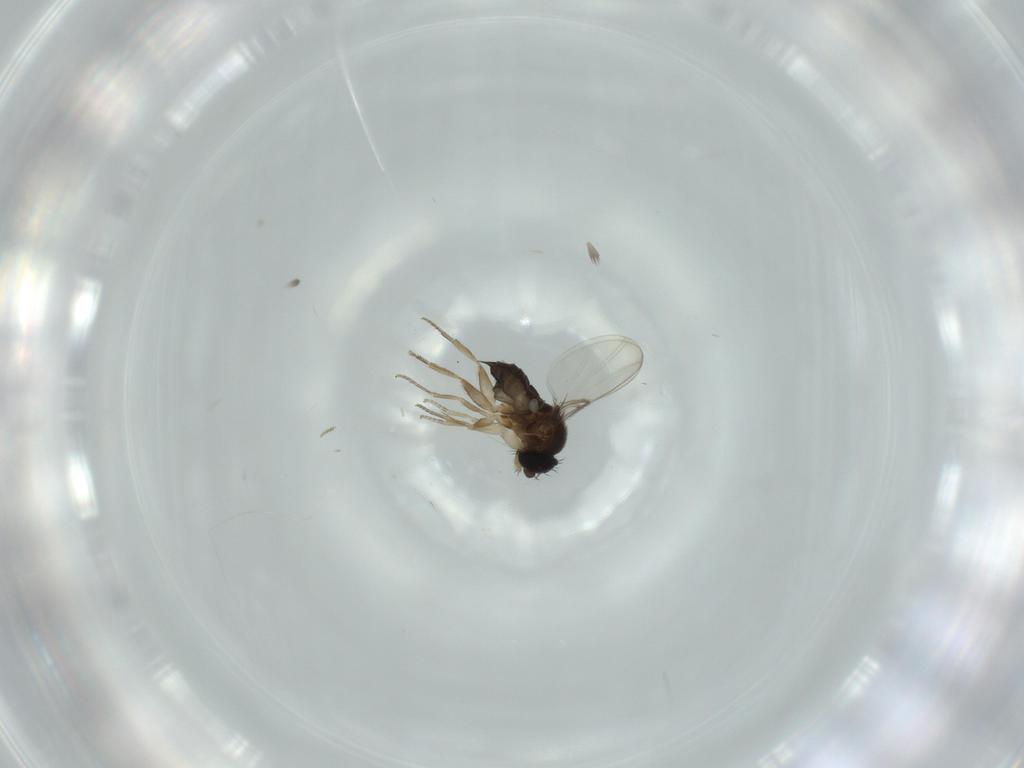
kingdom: Animalia
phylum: Arthropoda
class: Insecta
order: Diptera
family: Phoridae
